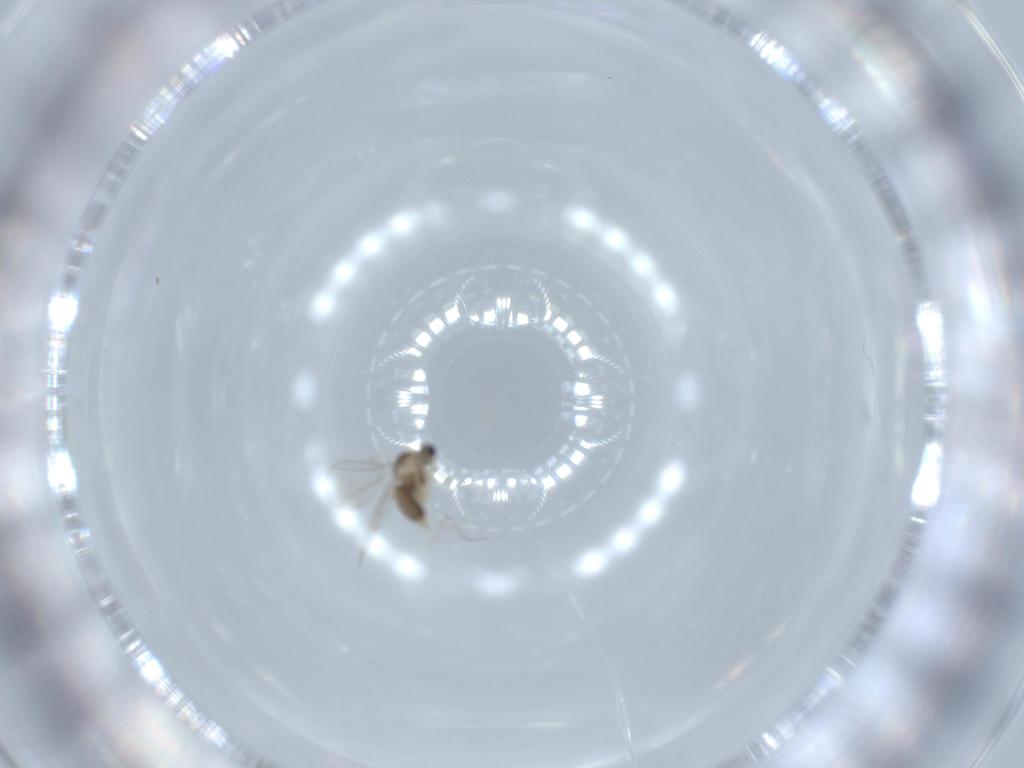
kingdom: Animalia
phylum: Arthropoda
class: Insecta
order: Diptera
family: Cecidomyiidae
